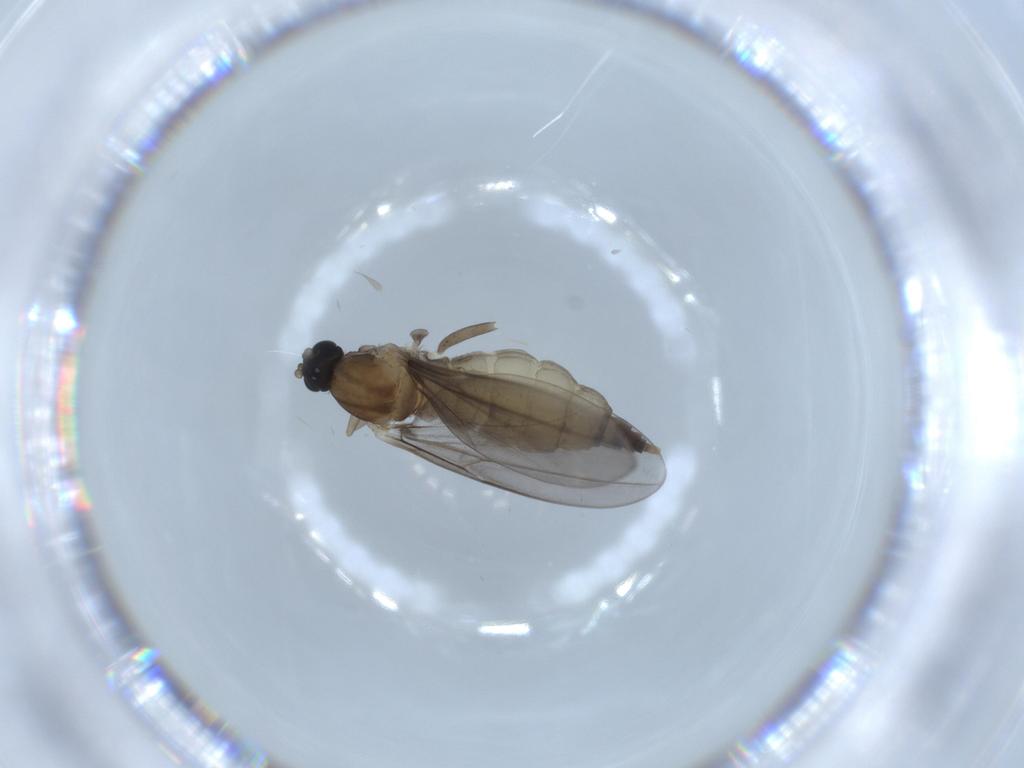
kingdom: Animalia
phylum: Arthropoda
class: Insecta
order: Diptera
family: Cecidomyiidae
